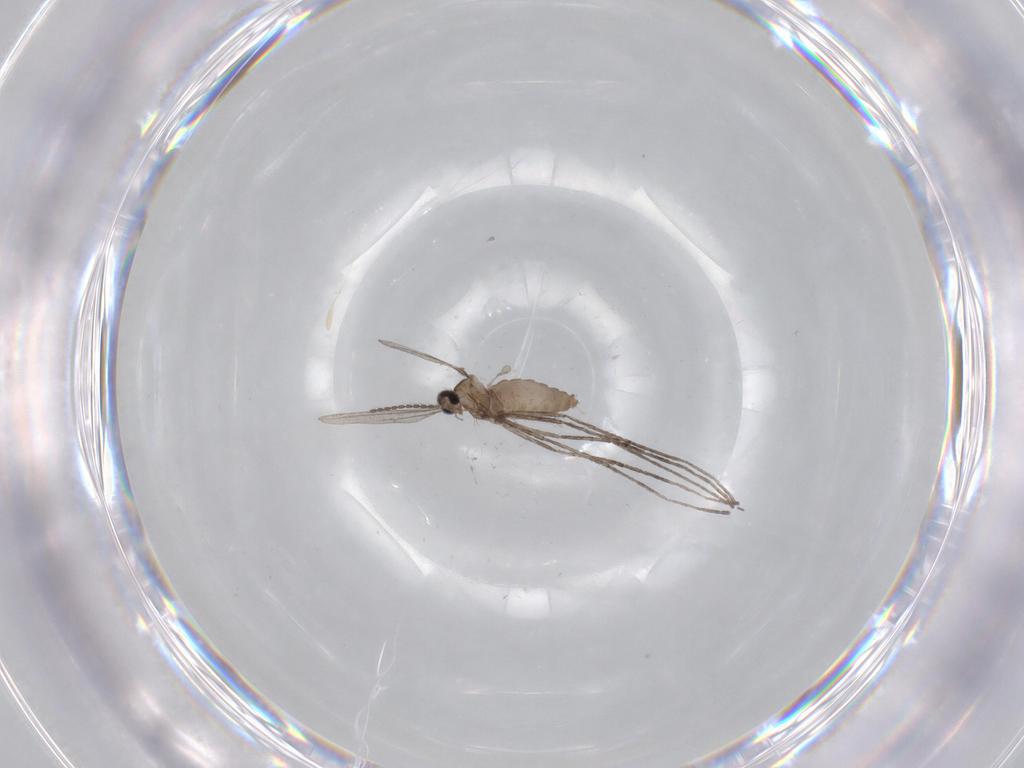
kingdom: Animalia
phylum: Arthropoda
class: Insecta
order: Diptera
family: Cecidomyiidae
